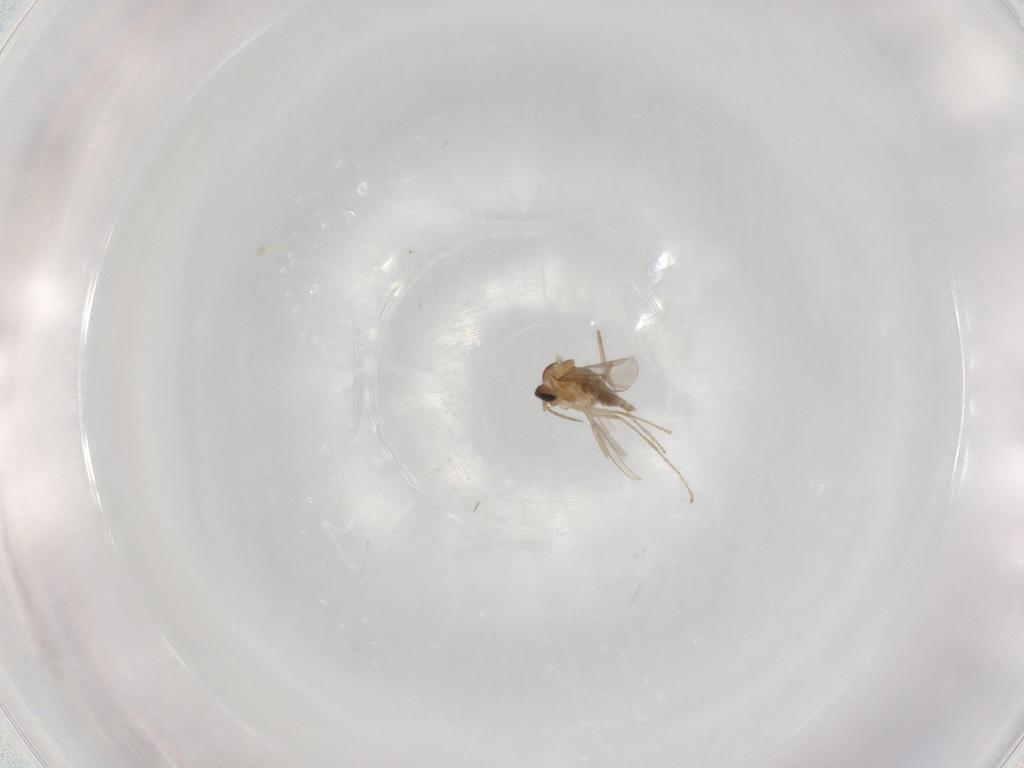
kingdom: Animalia
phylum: Arthropoda
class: Insecta
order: Diptera
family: Cecidomyiidae
